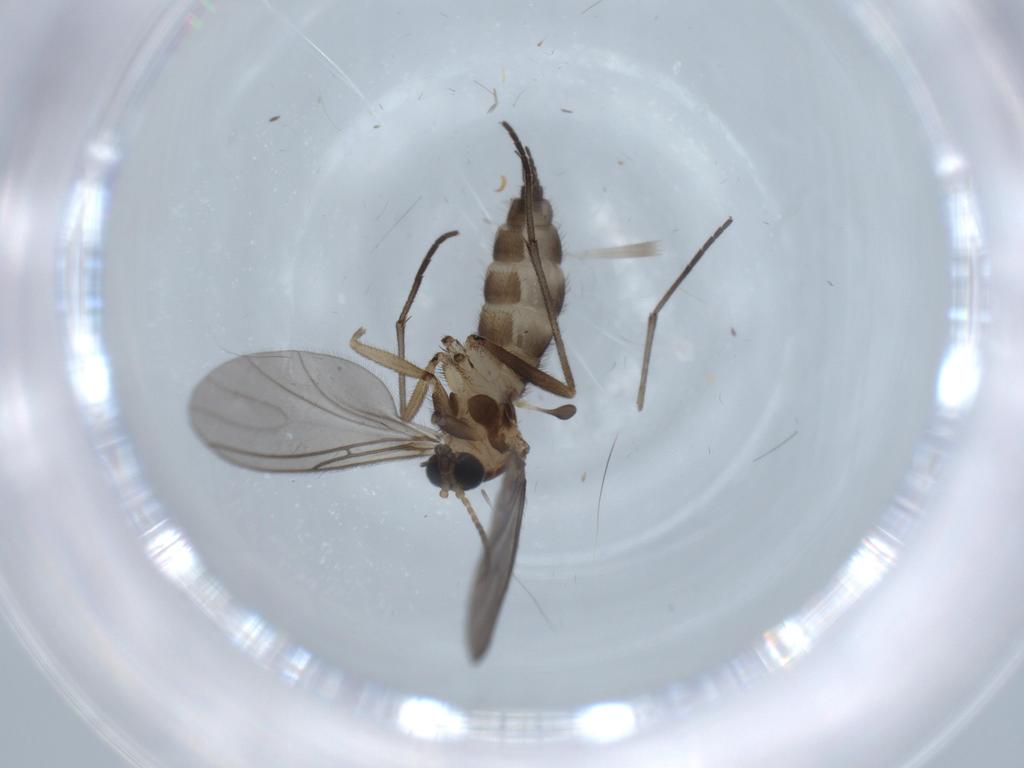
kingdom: Animalia
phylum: Arthropoda
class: Insecta
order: Diptera
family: Sciaridae
